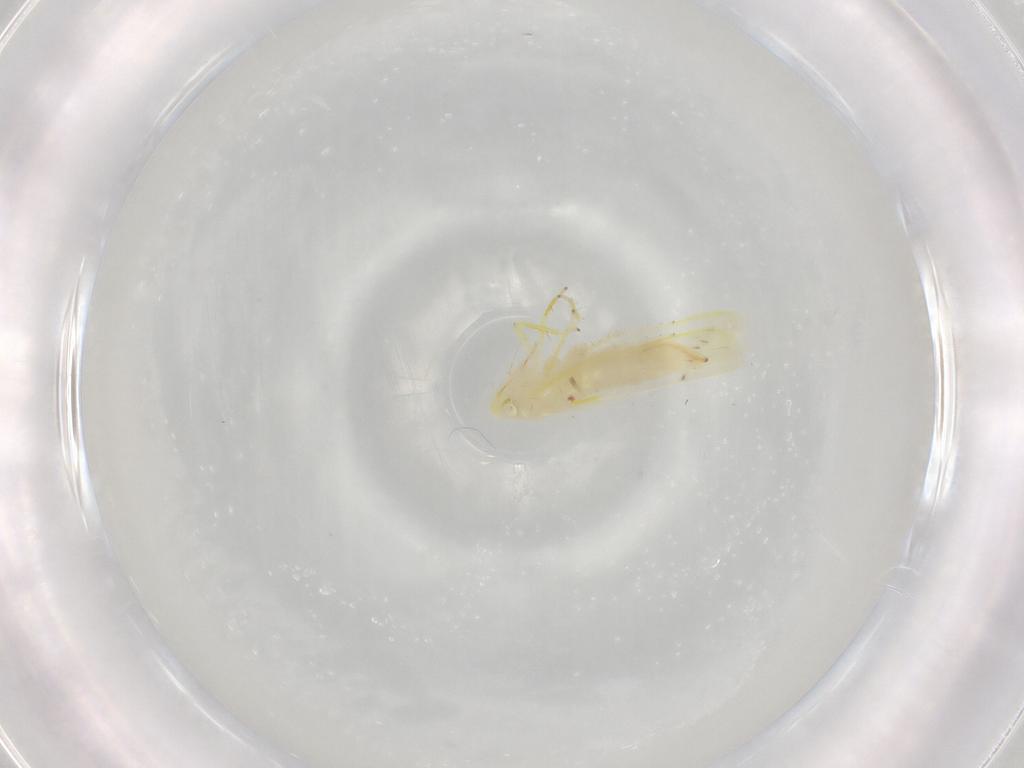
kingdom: Animalia
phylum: Arthropoda
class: Insecta
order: Hemiptera
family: Cicadellidae
